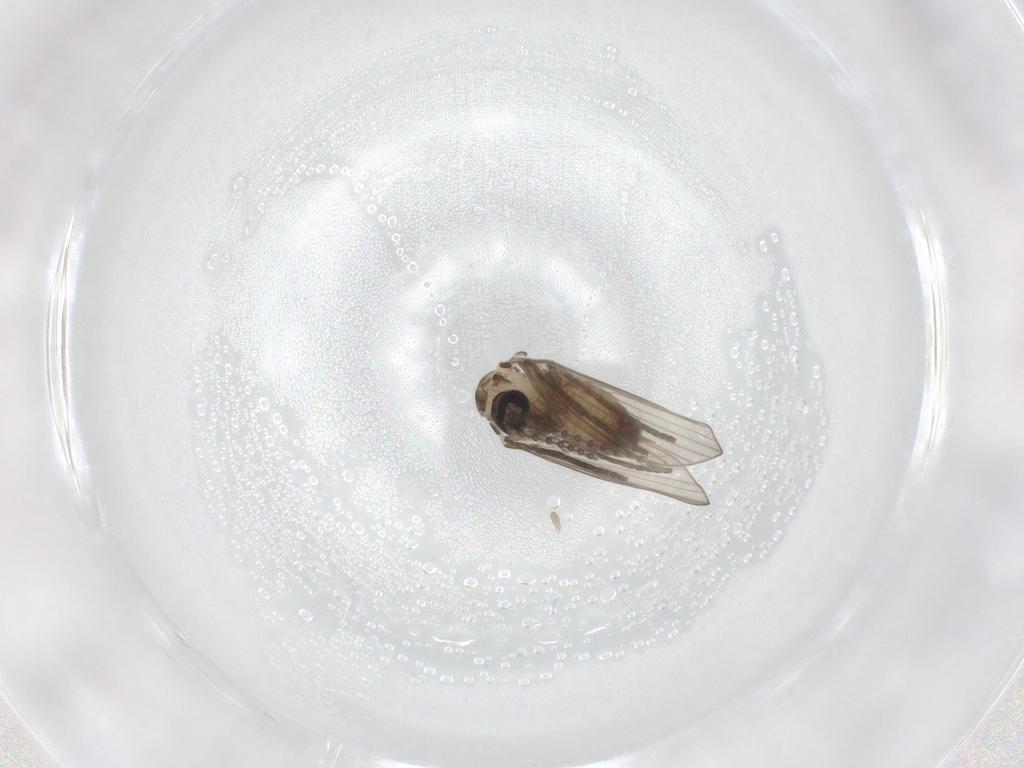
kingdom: Animalia
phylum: Arthropoda
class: Insecta
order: Diptera
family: Psychodidae
